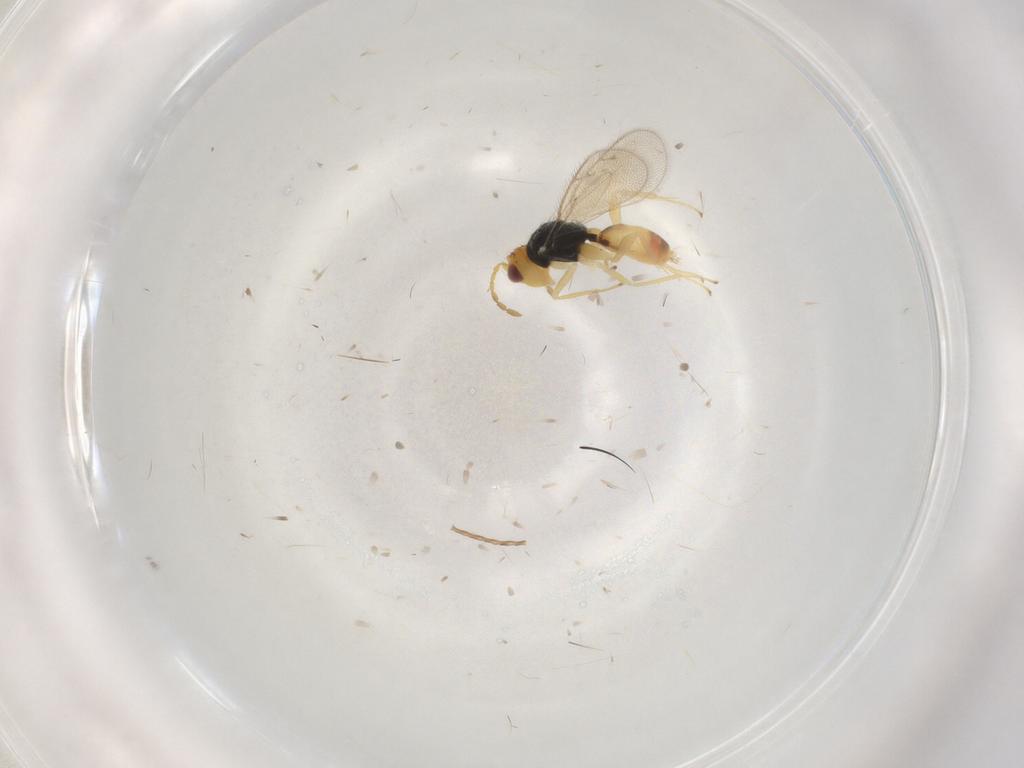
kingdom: Animalia
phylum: Arthropoda
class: Insecta
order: Hymenoptera
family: Eulophidae
